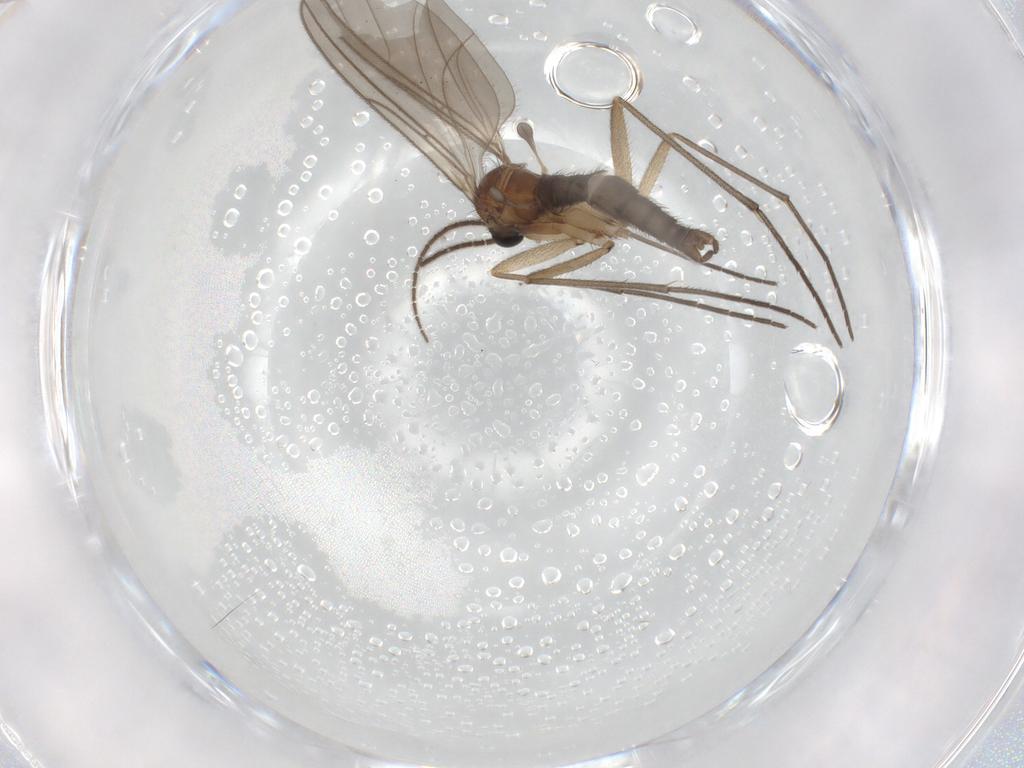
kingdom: Animalia
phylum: Arthropoda
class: Insecta
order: Diptera
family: Sciaridae
